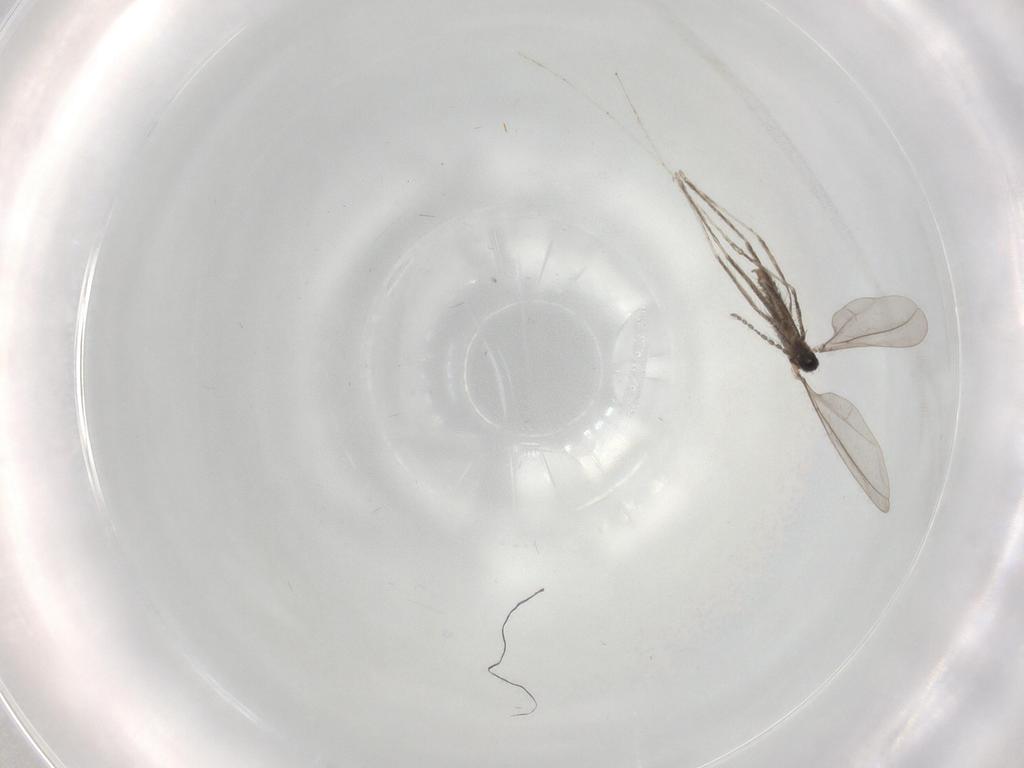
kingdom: Animalia
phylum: Arthropoda
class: Insecta
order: Diptera
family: Cecidomyiidae
